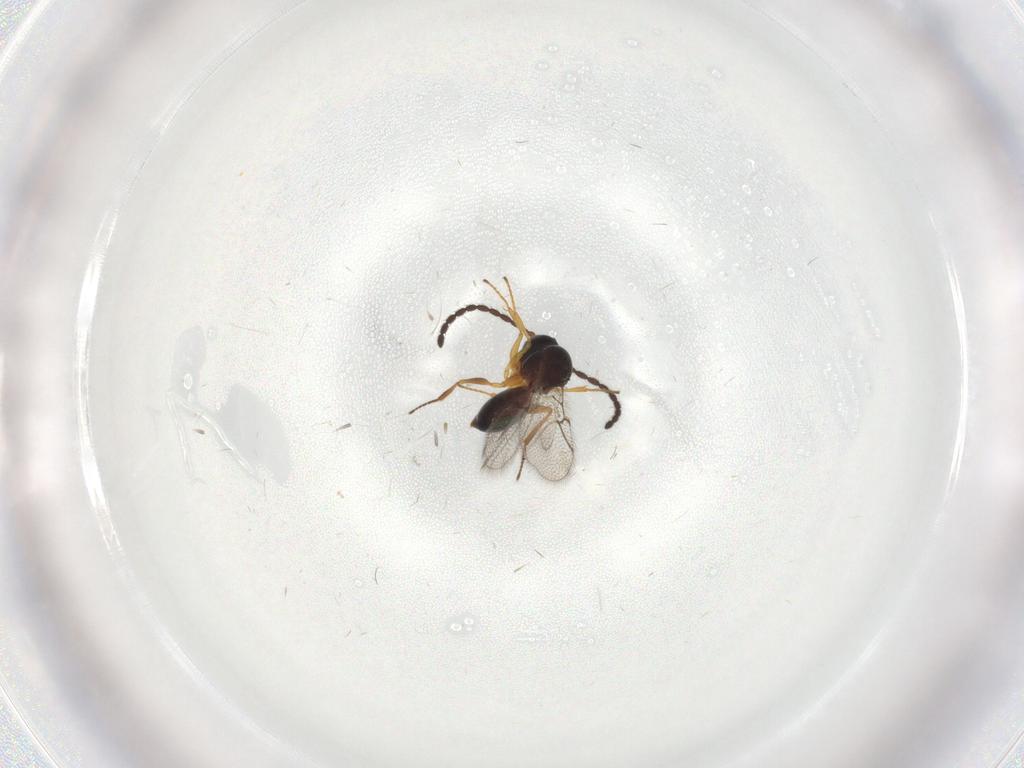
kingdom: Animalia
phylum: Arthropoda
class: Insecta
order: Hymenoptera
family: Figitidae
